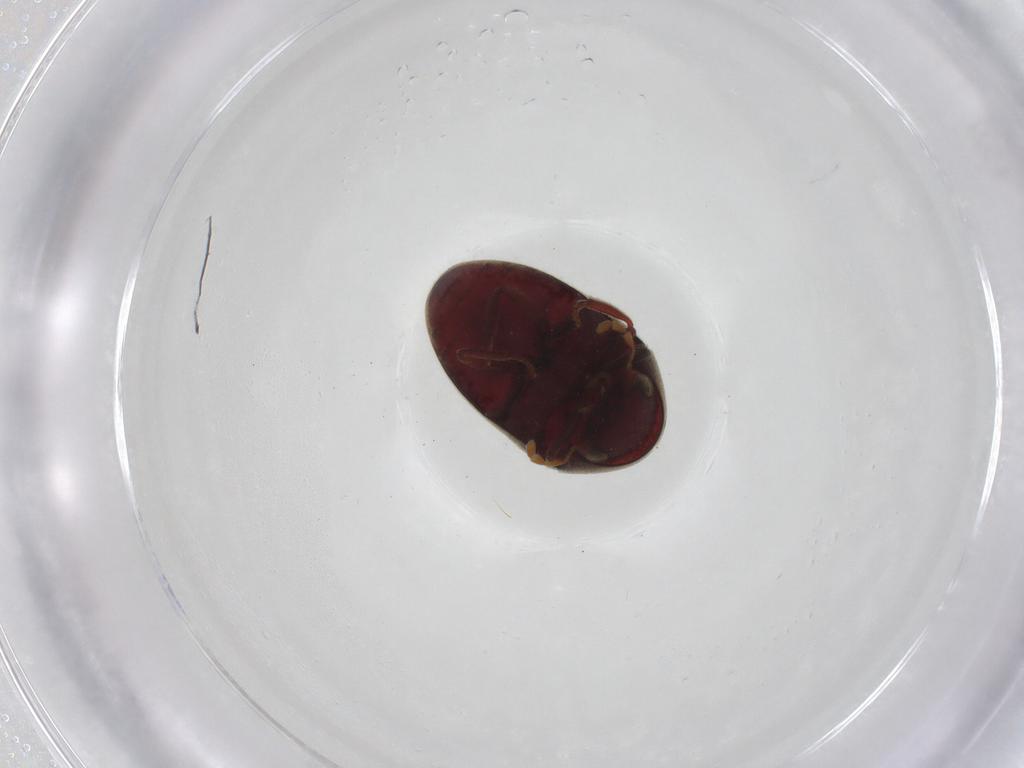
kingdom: Animalia
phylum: Arthropoda
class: Insecta
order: Coleoptera
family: Anobiidae
